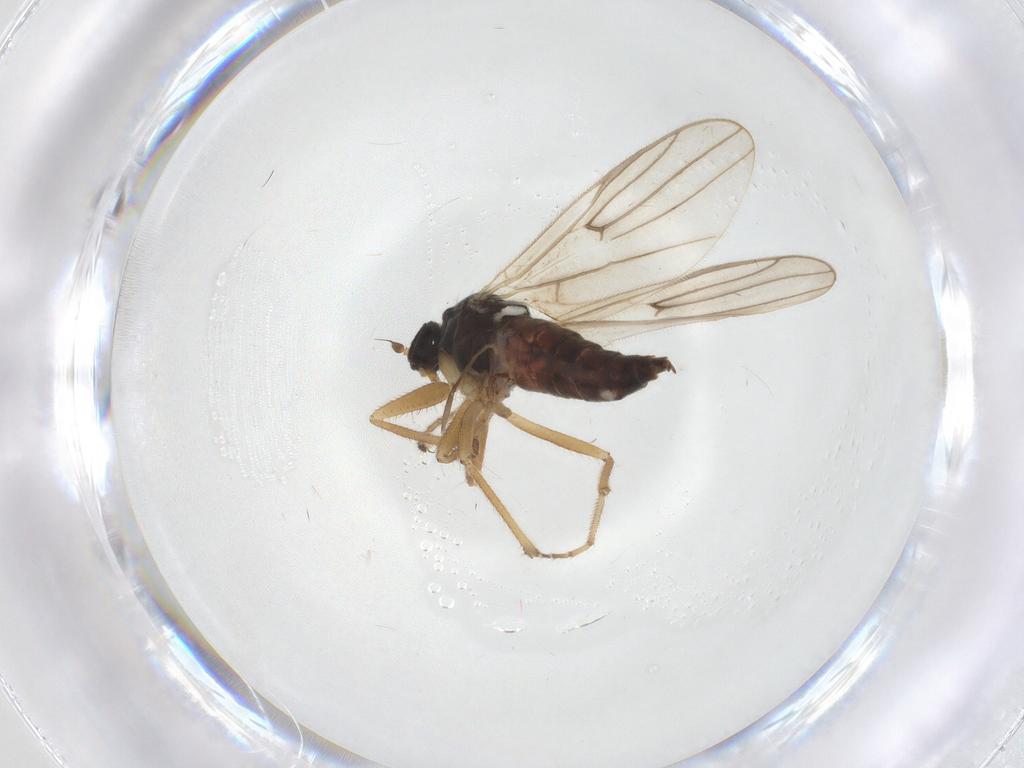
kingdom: Animalia
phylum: Arthropoda
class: Insecta
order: Diptera
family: Hybotidae
